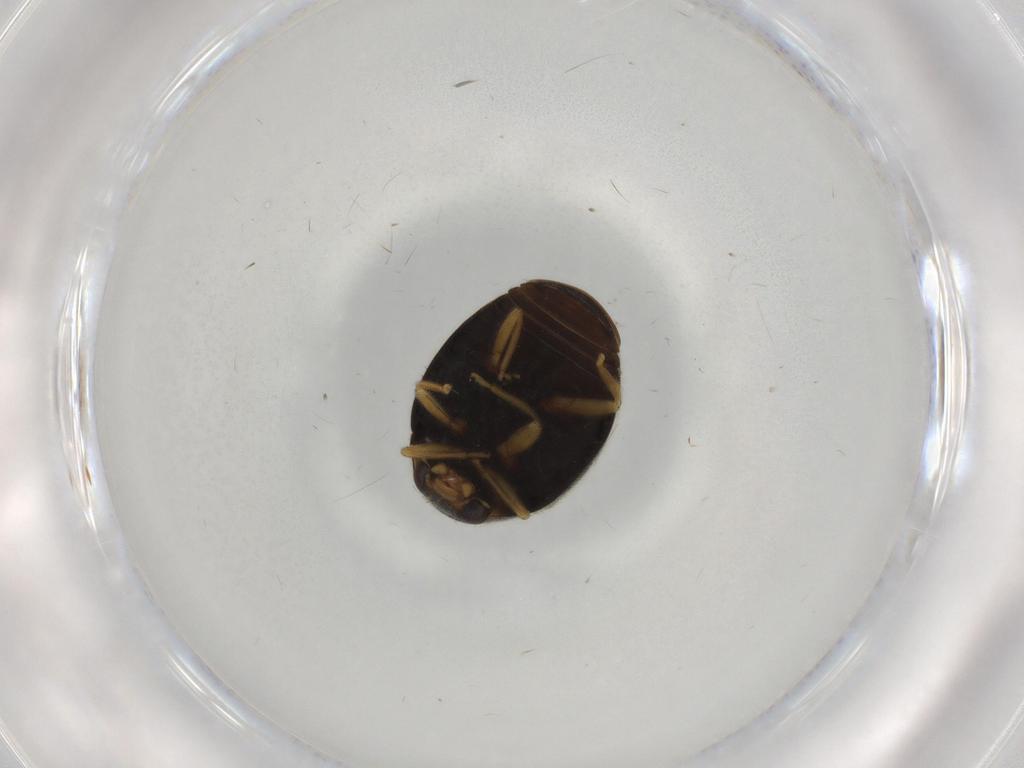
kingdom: Animalia
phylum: Arthropoda
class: Insecta
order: Coleoptera
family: Coccinellidae
